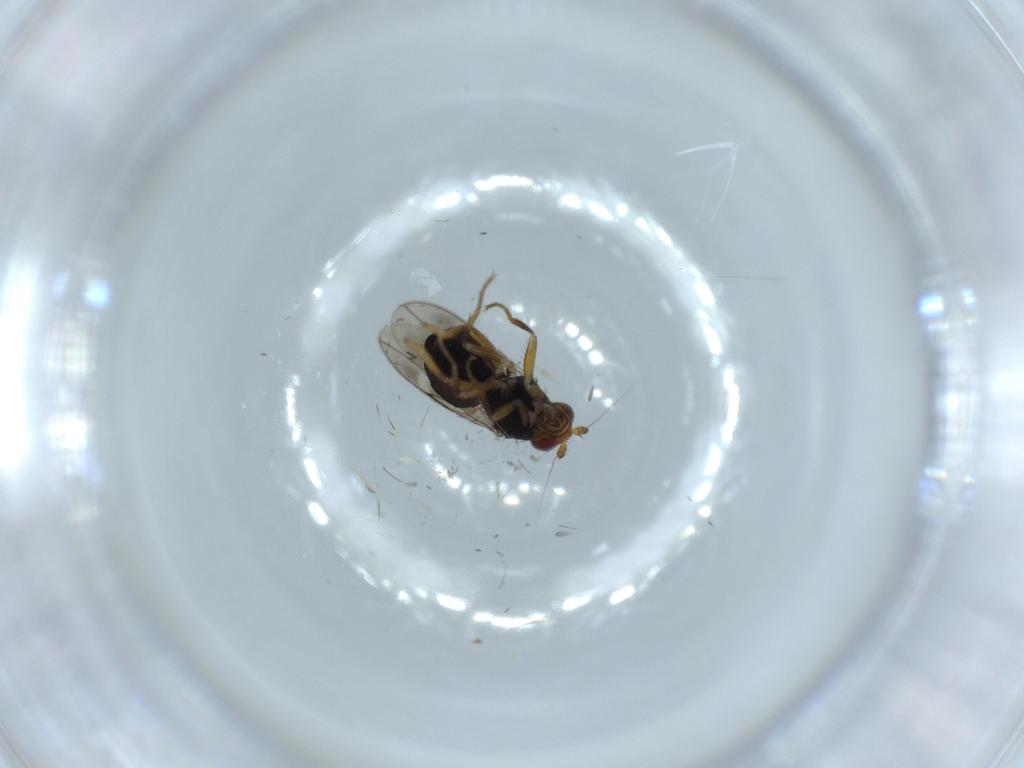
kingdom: Animalia
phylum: Arthropoda
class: Insecta
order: Diptera
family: Sphaeroceridae
